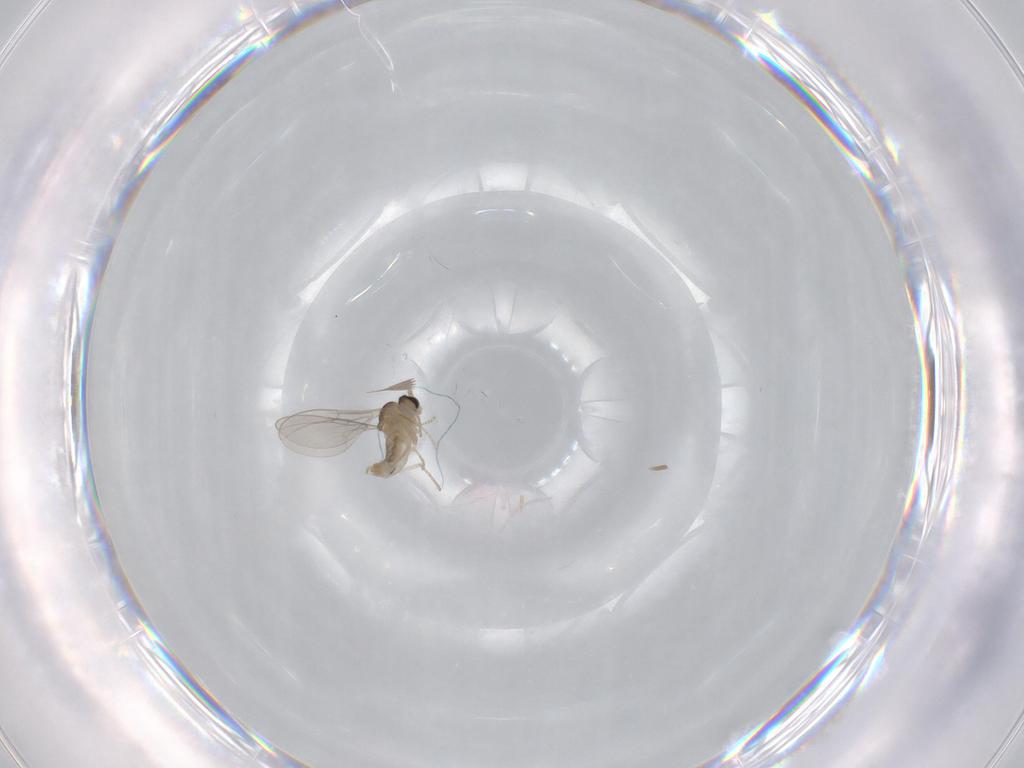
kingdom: Animalia
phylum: Arthropoda
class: Insecta
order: Diptera
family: Cecidomyiidae
